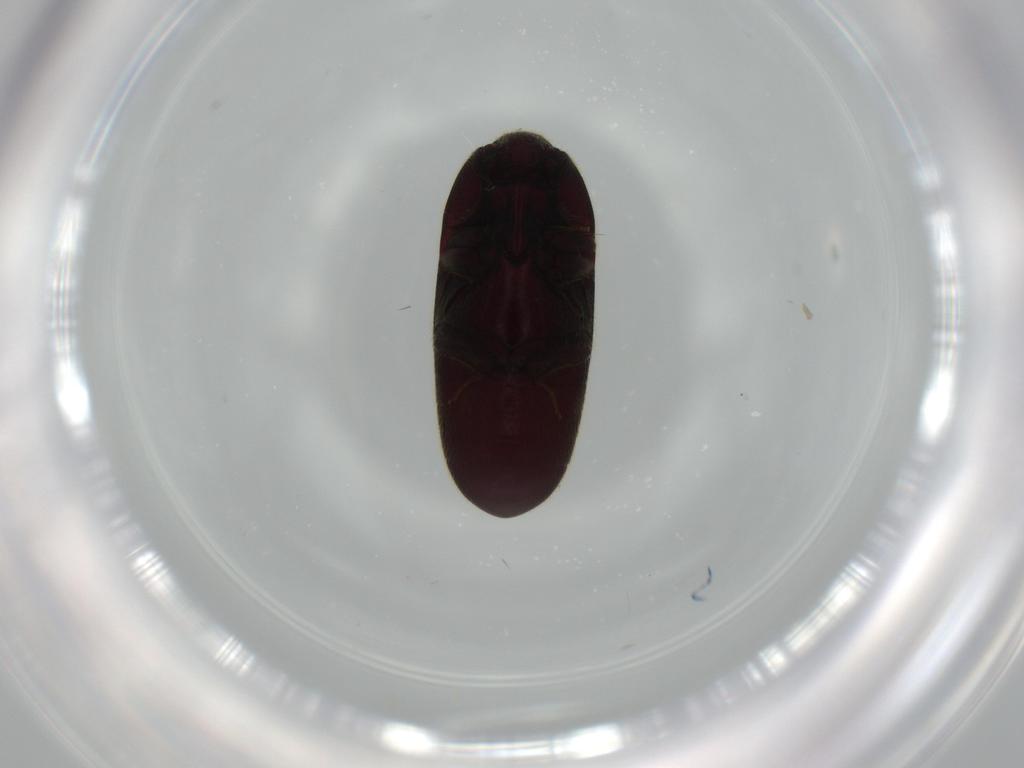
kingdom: Animalia
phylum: Arthropoda
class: Insecta
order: Coleoptera
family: Throscidae
